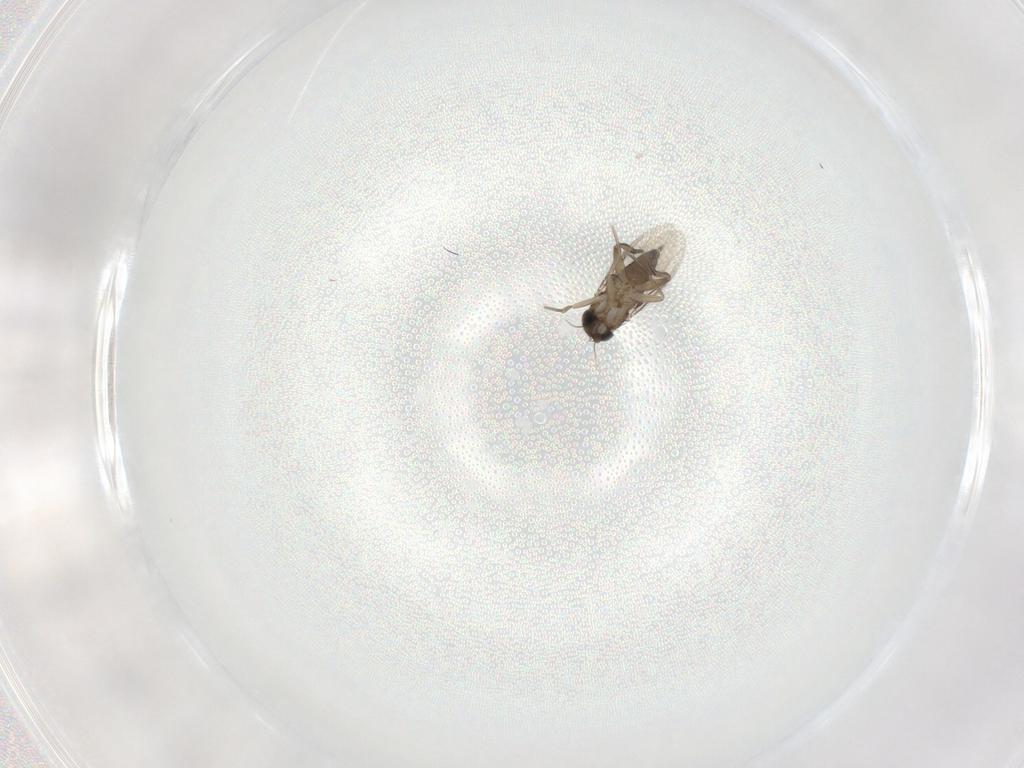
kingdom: Animalia
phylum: Arthropoda
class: Insecta
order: Diptera
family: Phoridae
